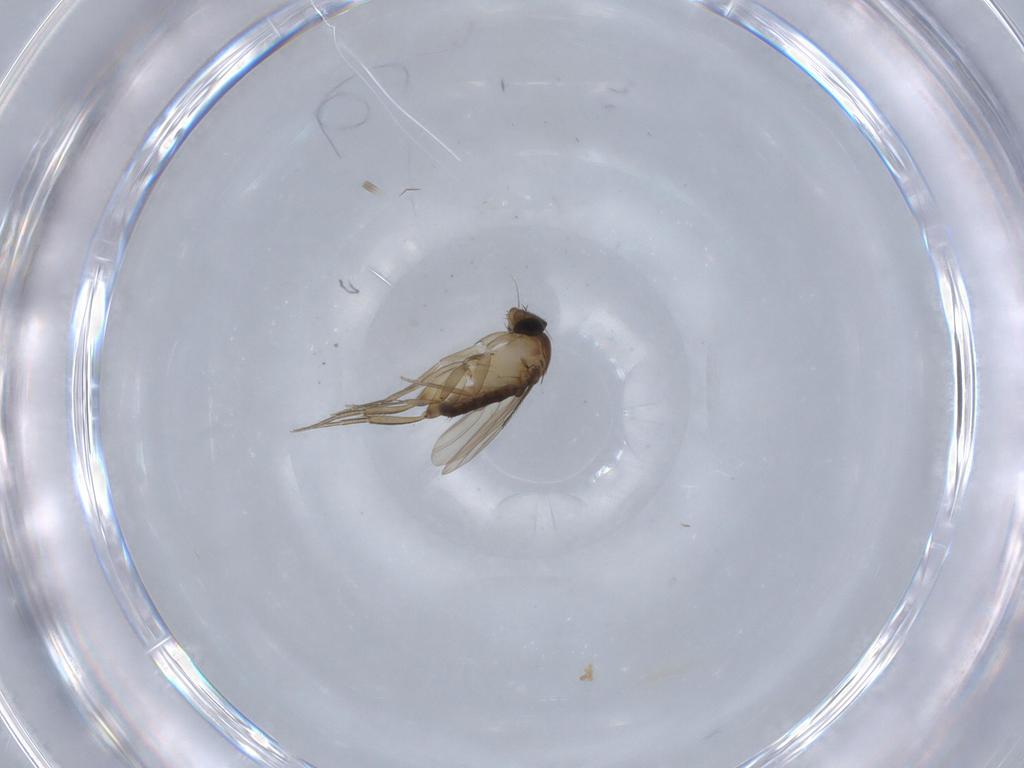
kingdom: Animalia
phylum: Arthropoda
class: Insecta
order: Diptera
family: Phoridae
